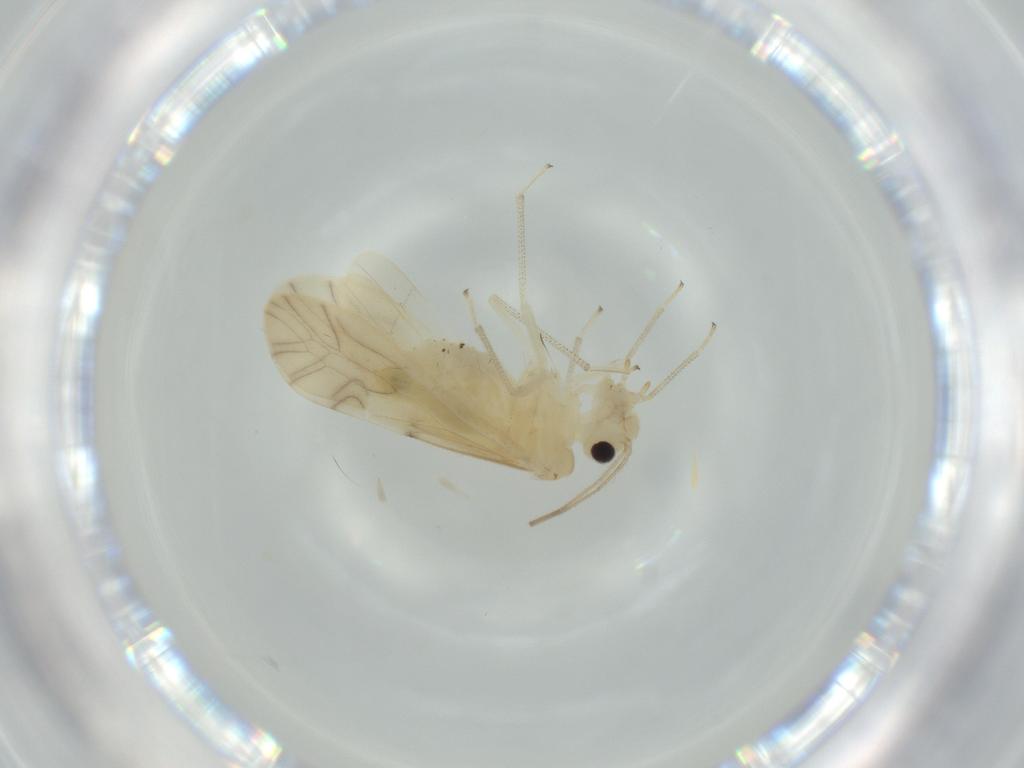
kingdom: Animalia
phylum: Arthropoda
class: Insecta
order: Psocodea
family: Caeciliusidae
